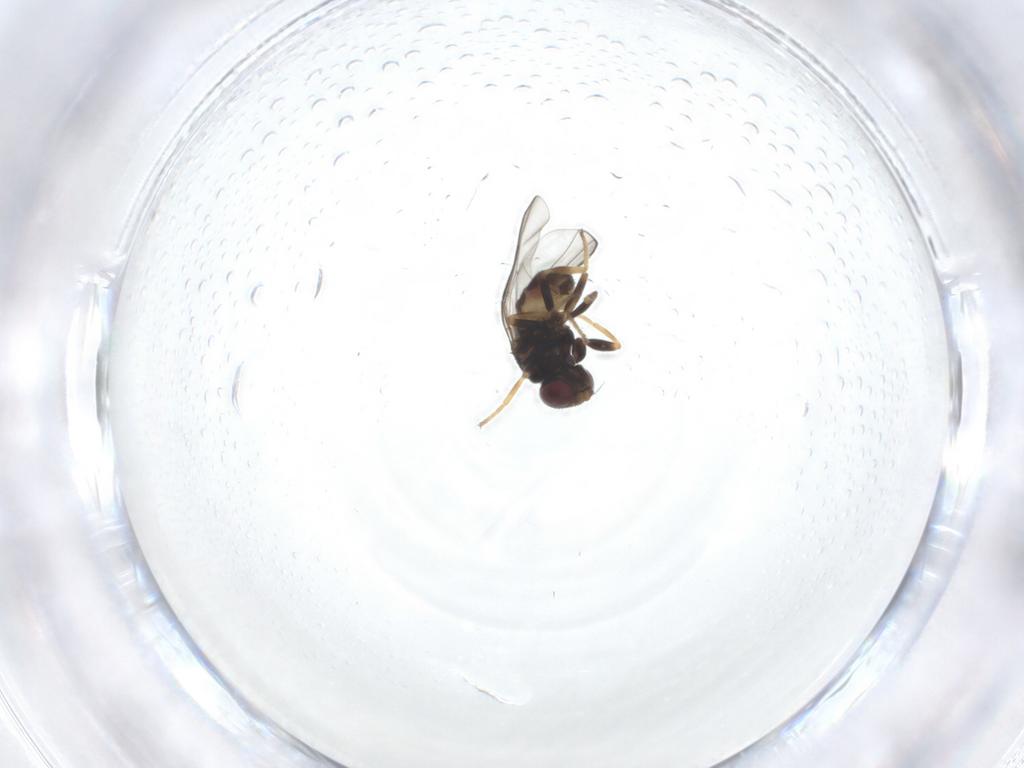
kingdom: Animalia
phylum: Arthropoda
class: Insecta
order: Diptera
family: Chloropidae
